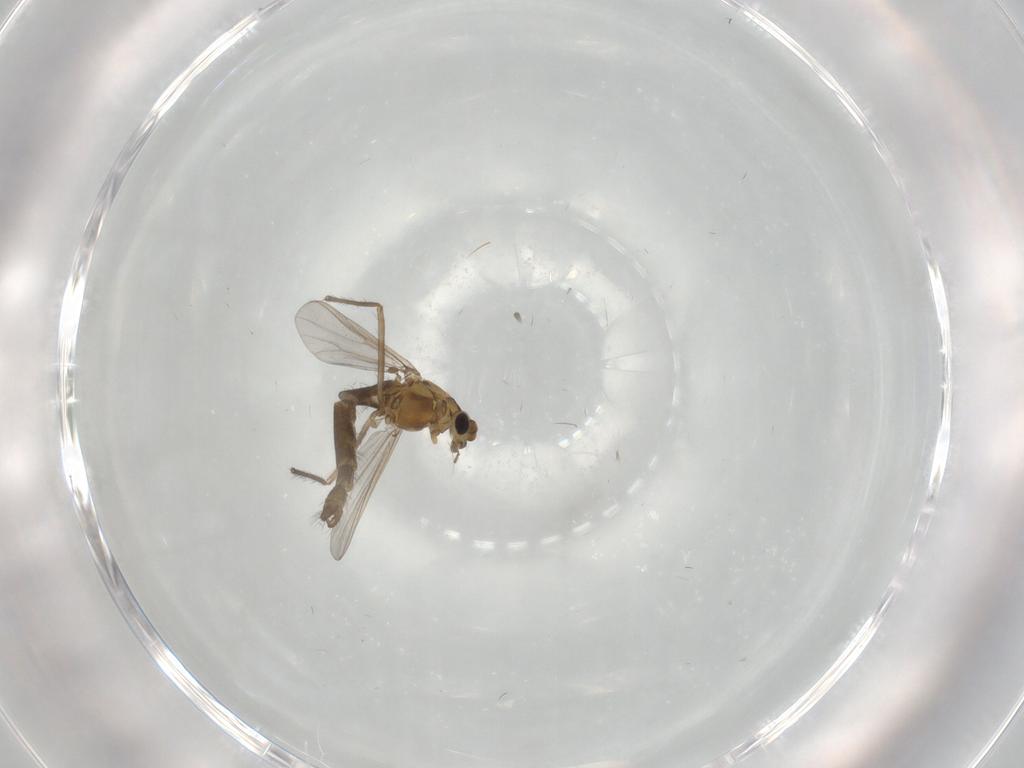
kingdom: Animalia
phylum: Arthropoda
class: Insecta
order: Diptera
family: Chironomidae
